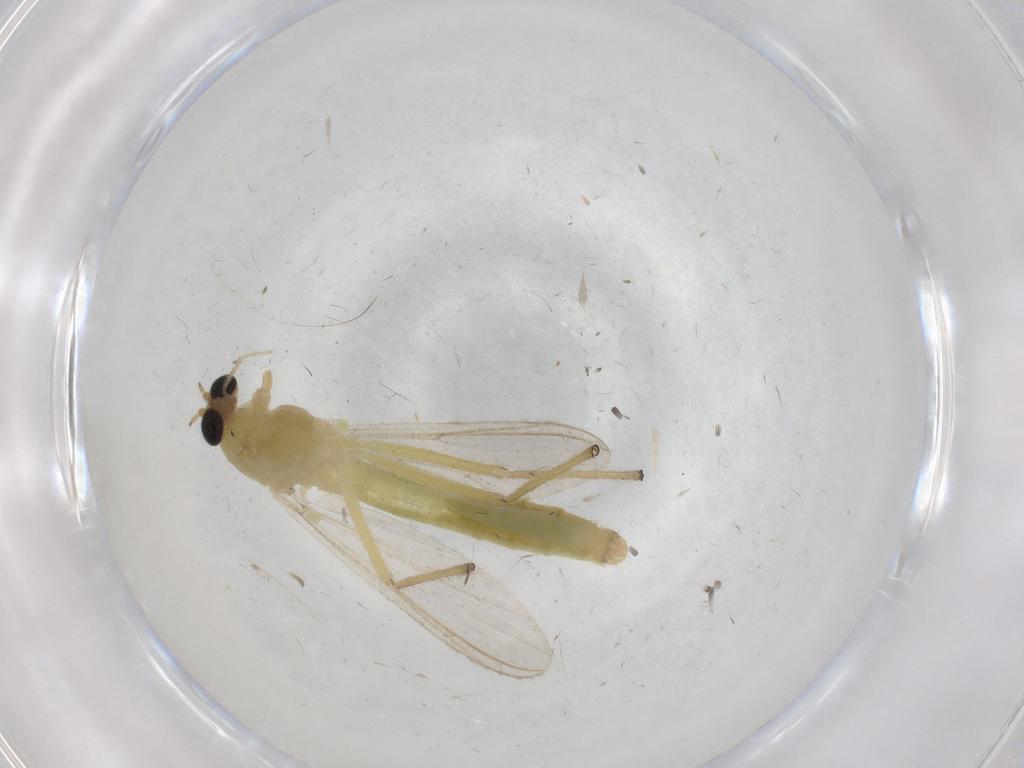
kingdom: Animalia
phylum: Arthropoda
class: Insecta
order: Diptera
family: Chironomidae
